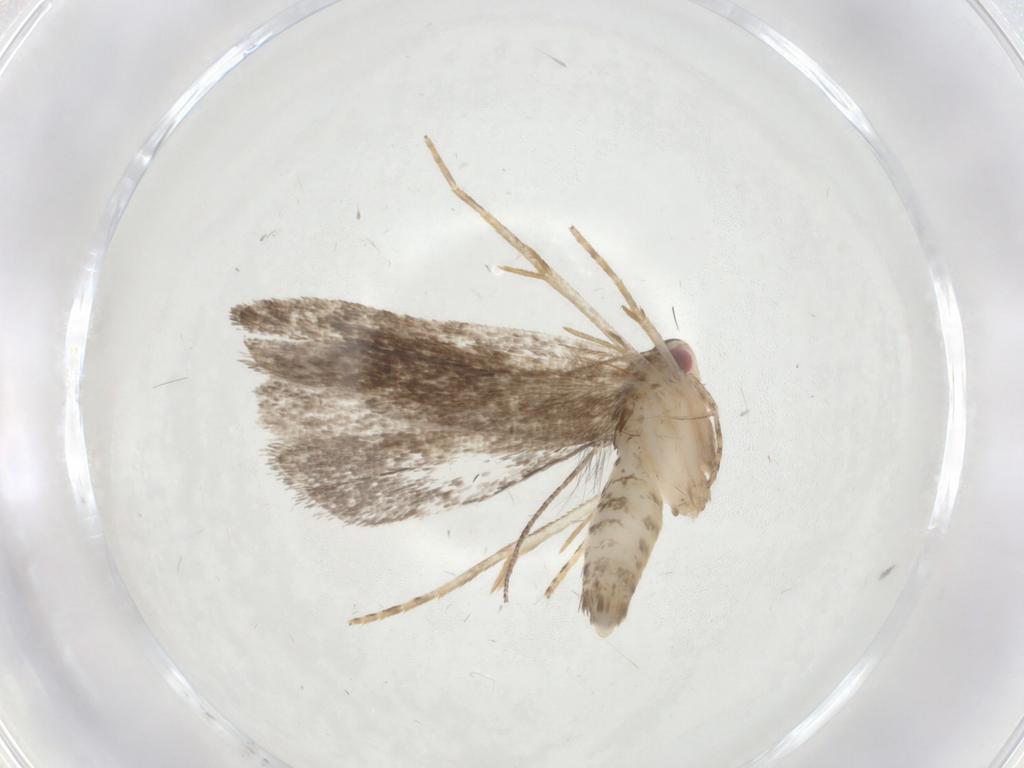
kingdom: Animalia
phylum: Arthropoda
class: Insecta
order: Lepidoptera
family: Gelechiidae
